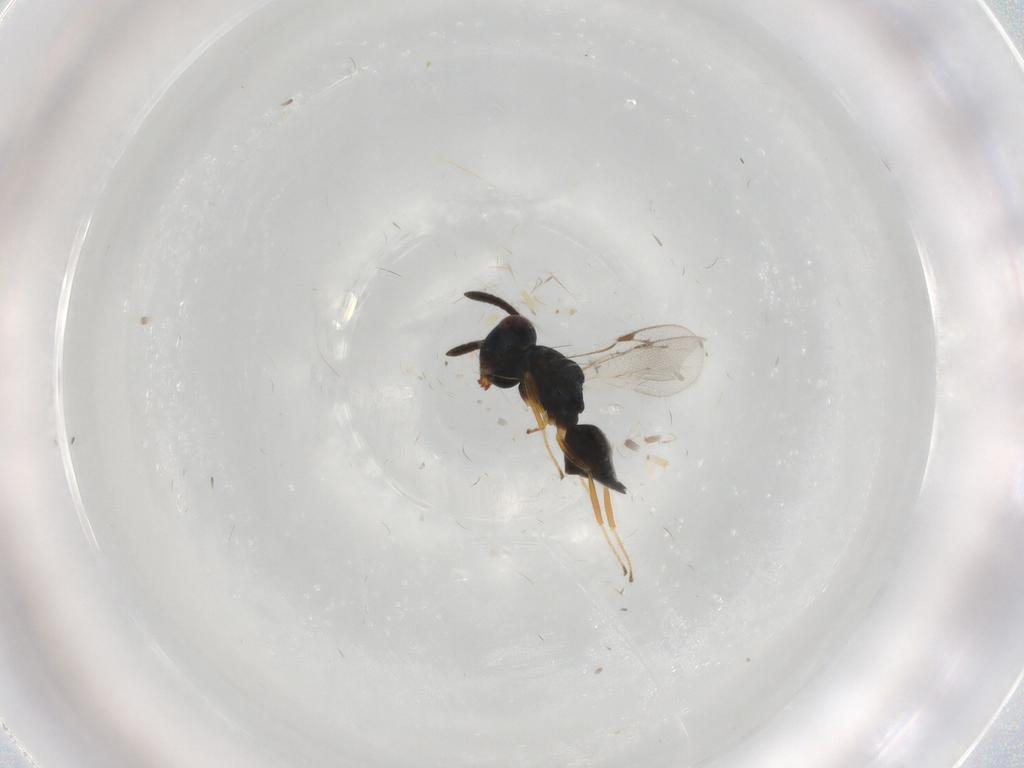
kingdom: Animalia
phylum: Arthropoda
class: Insecta
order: Hymenoptera
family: Pteromalidae
